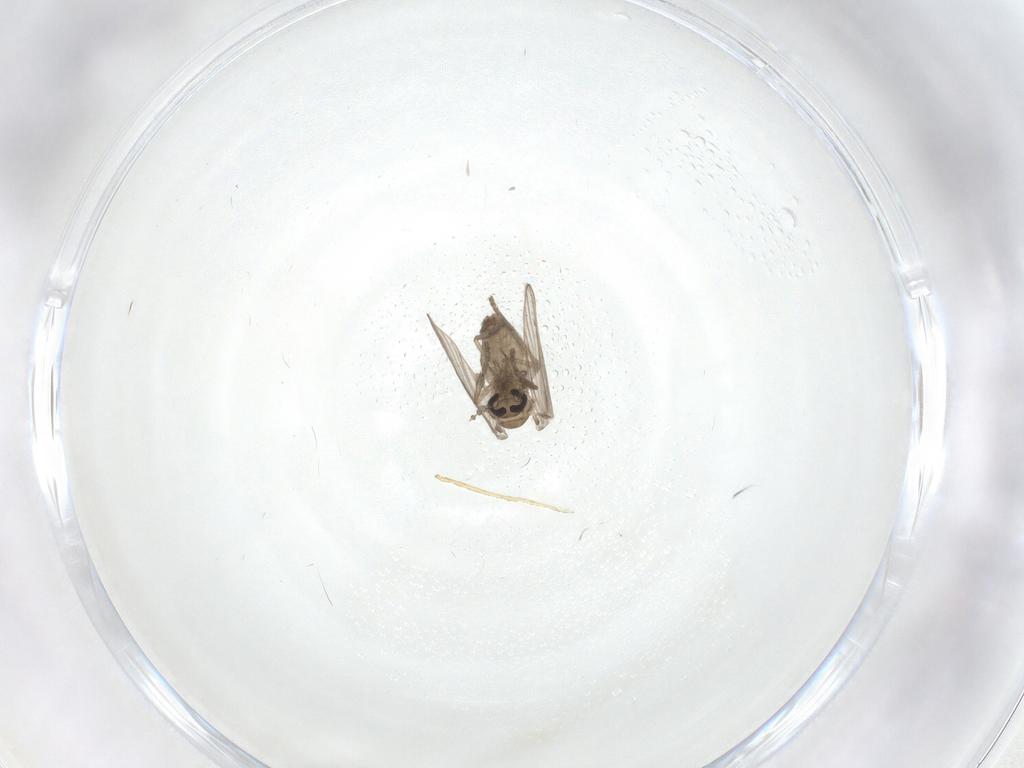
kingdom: Animalia
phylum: Arthropoda
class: Insecta
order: Diptera
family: Psychodidae
